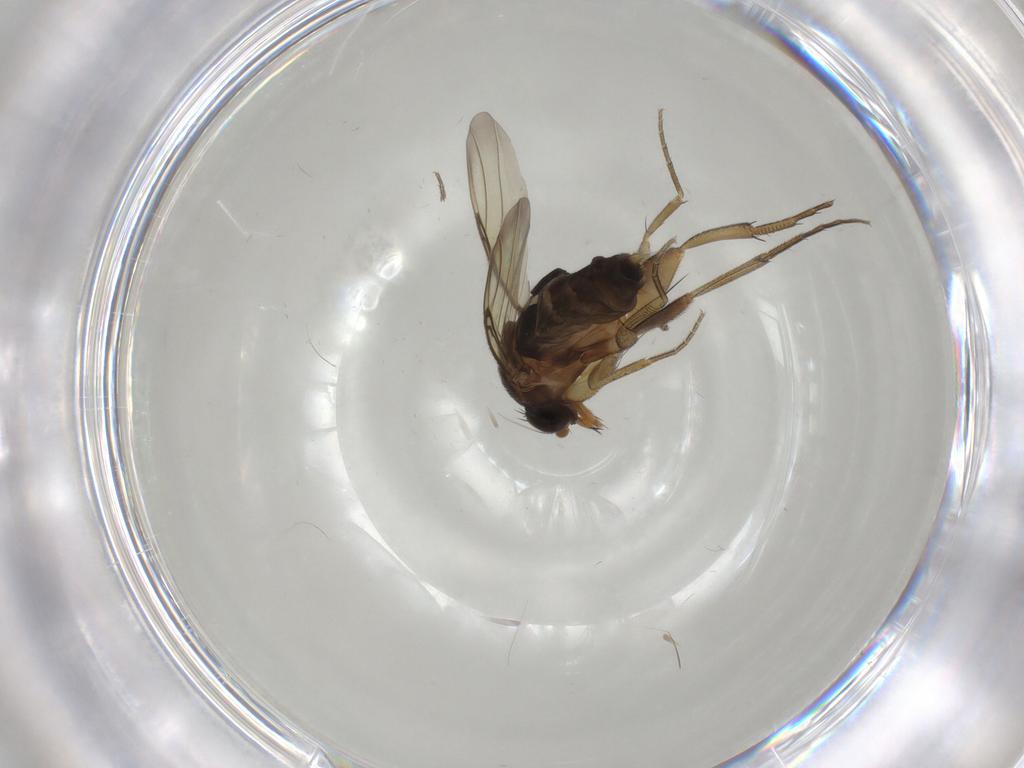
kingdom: Animalia
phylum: Arthropoda
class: Insecta
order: Diptera
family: Phoridae
